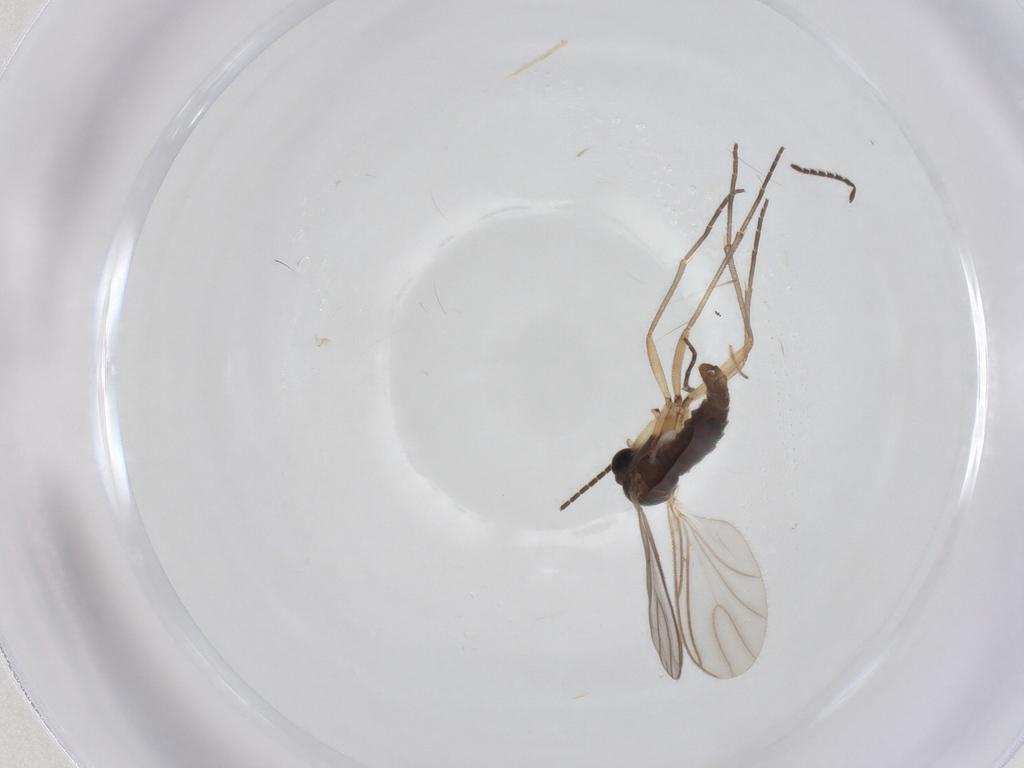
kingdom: Animalia
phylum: Arthropoda
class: Insecta
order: Diptera
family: Sciaridae
